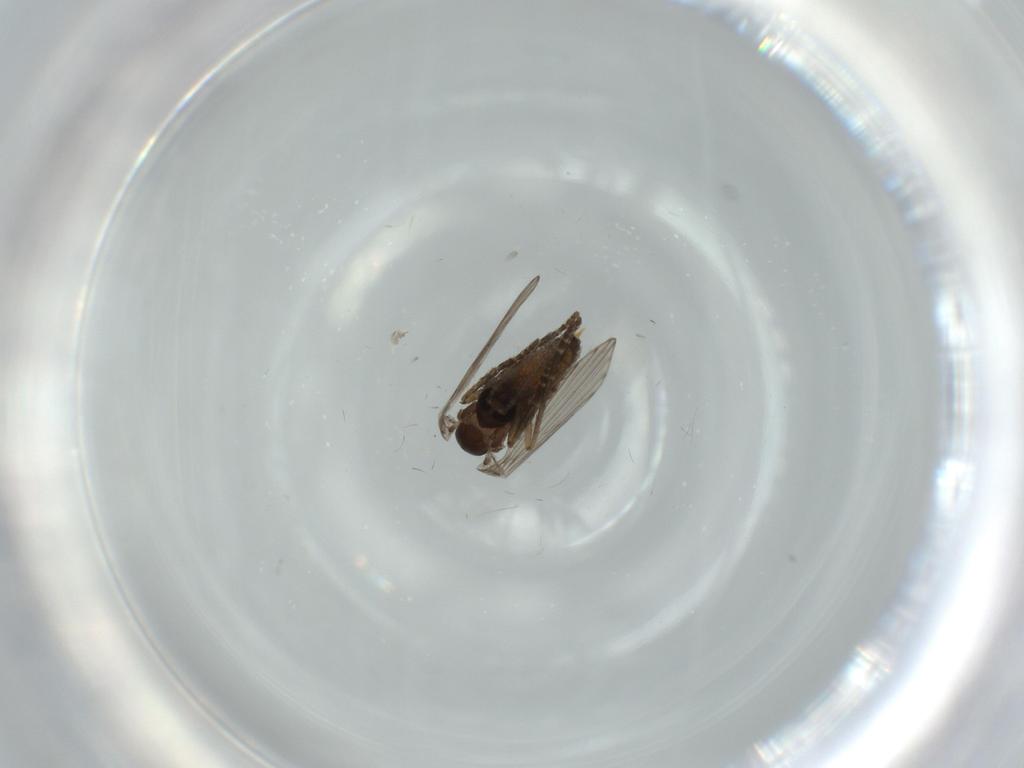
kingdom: Animalia
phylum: Arthropoda
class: Insecta
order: Diptera
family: Psychodidae
